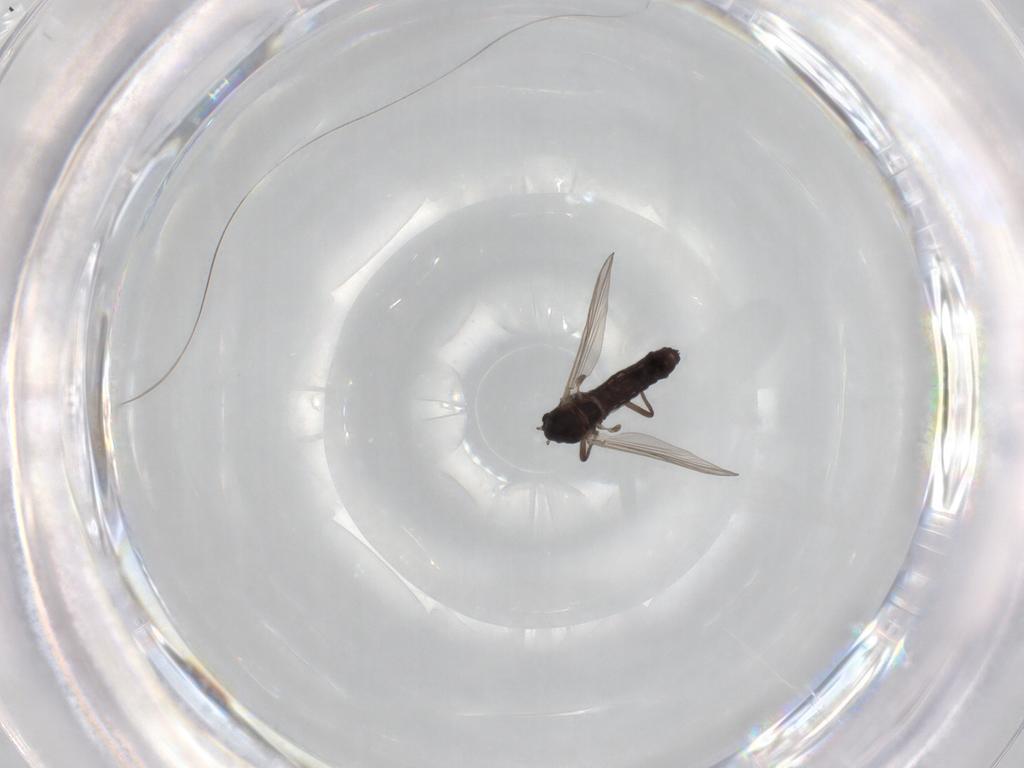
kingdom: Animalia
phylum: Arthropoda
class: Insecta
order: Diptera
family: Chironomidae
